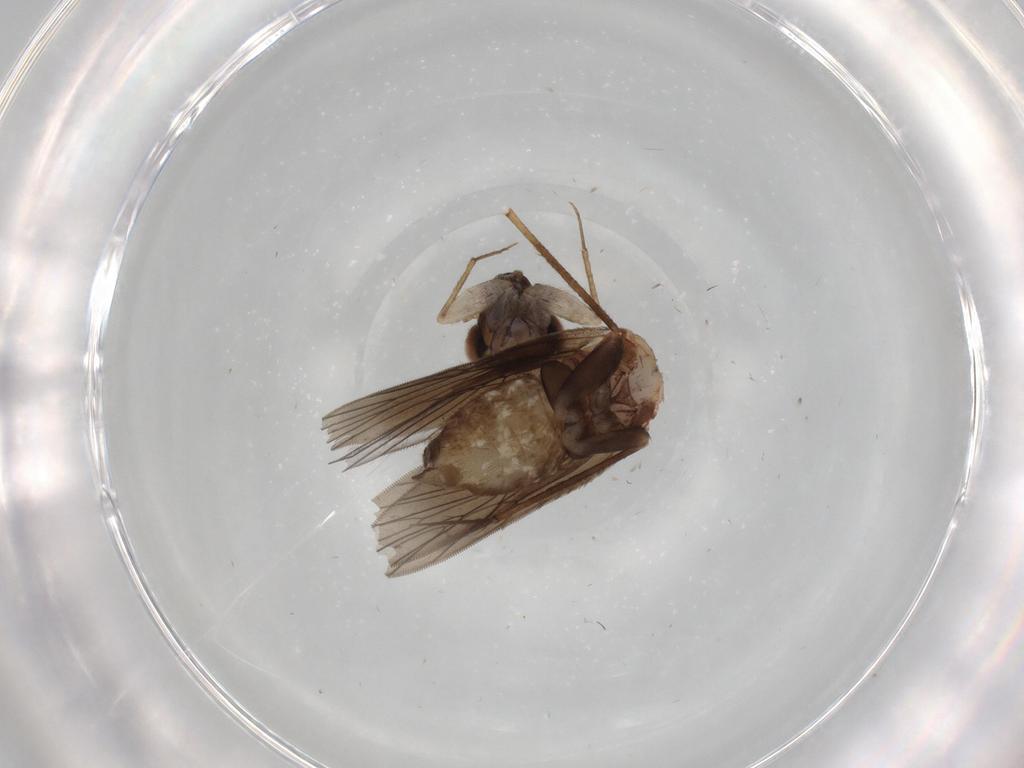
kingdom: Animalia
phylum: Arthropoda
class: Insecta
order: Psocodea
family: Lepidopsocidae
